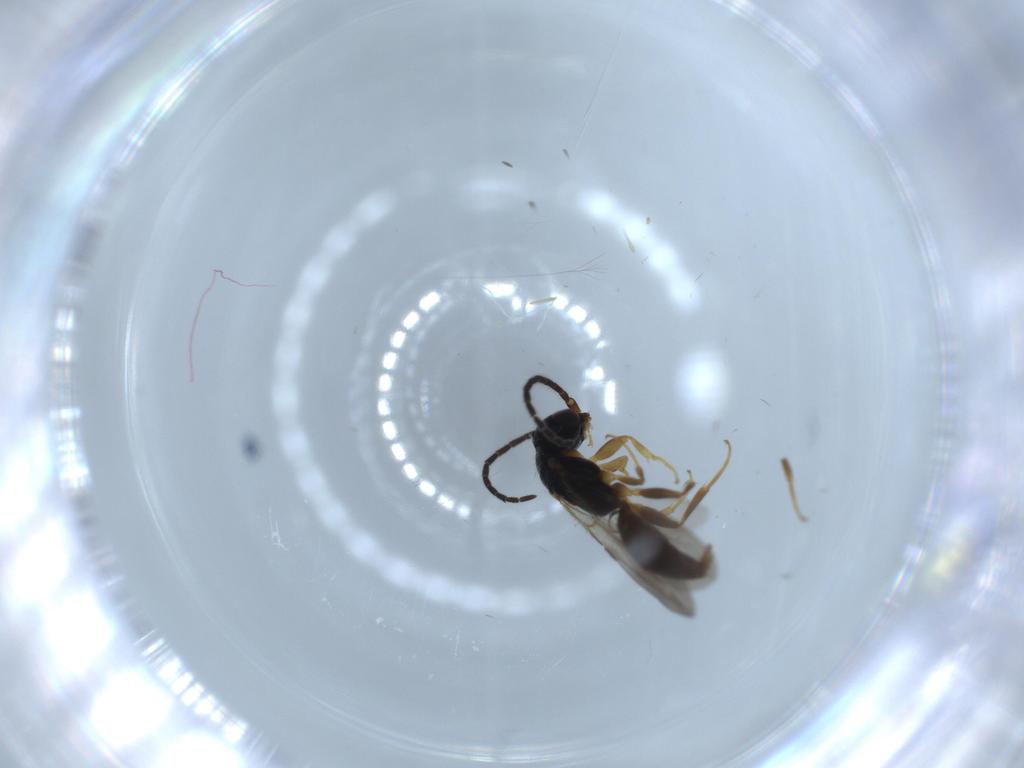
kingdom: Animalia
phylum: Arthropoda
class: Insecta
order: Hymenoptera
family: Bethylidae
